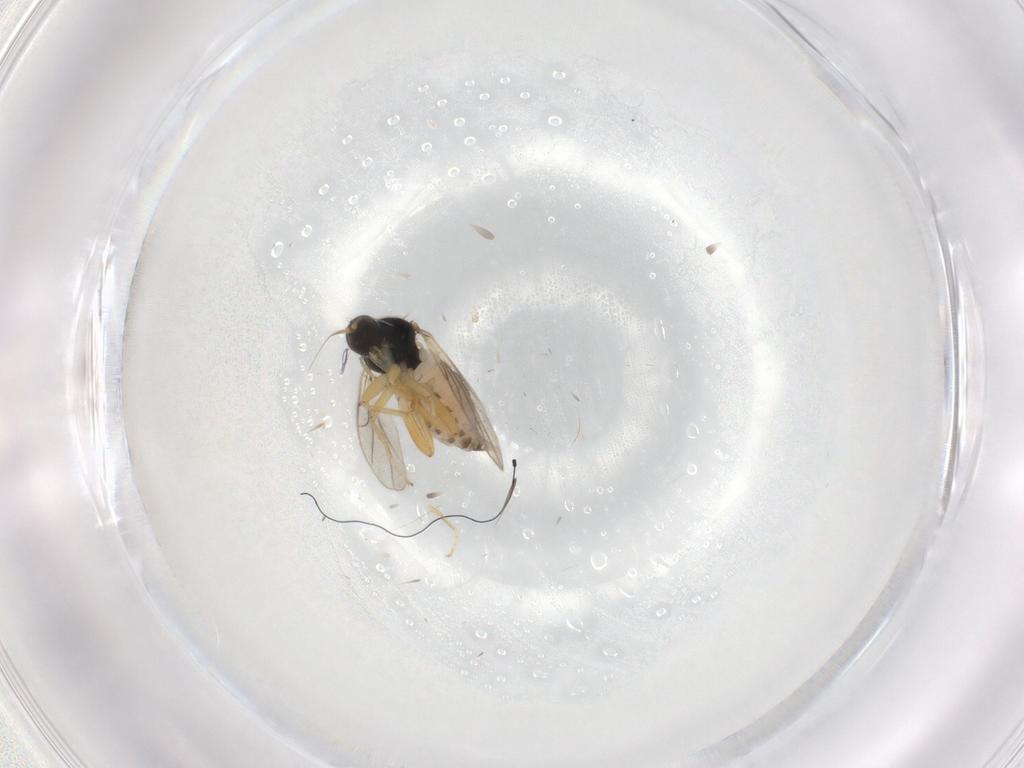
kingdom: Animalia
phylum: Arthropoda
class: Insecta
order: Diptera
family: Hybotidae
